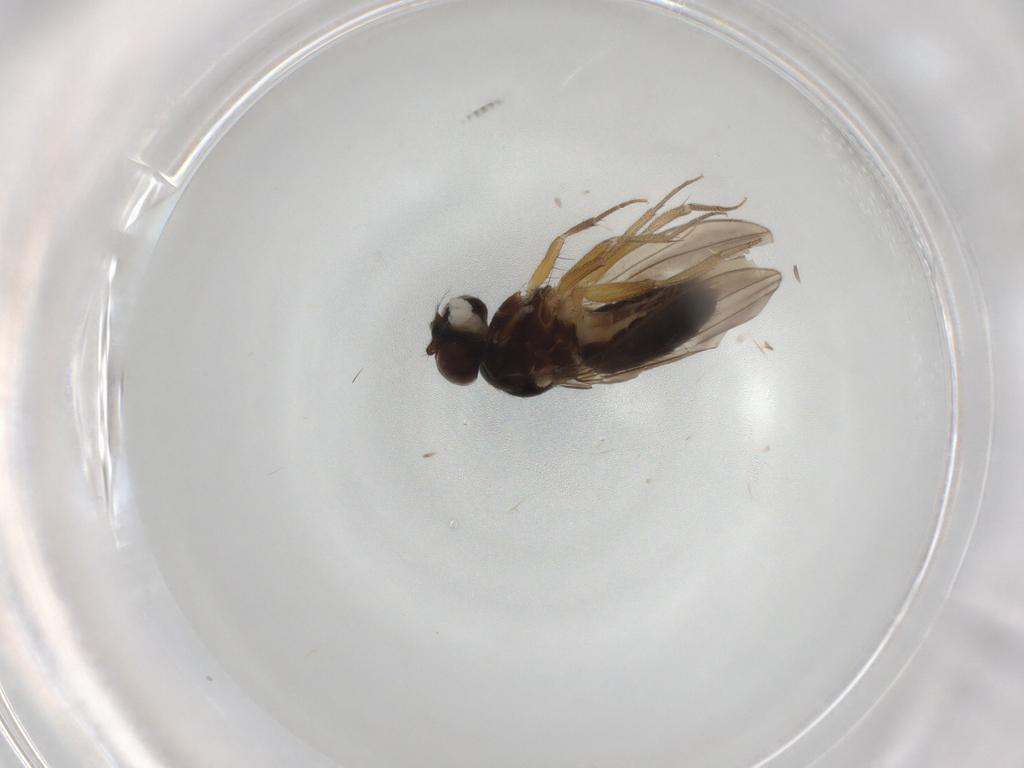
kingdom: Animalia
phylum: Arthropoda
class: Insecta
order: Diptera
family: Drosophilidae
